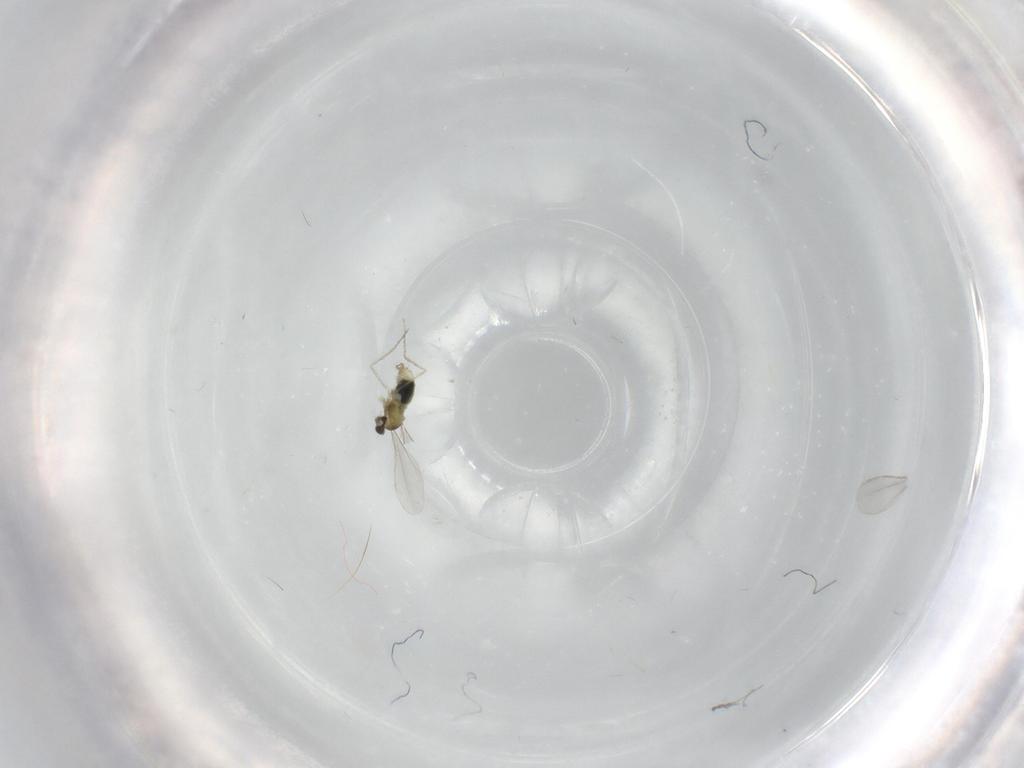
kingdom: Animalia
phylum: Arthropoda
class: Insecta
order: Diptera
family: Cecidomyiidae
